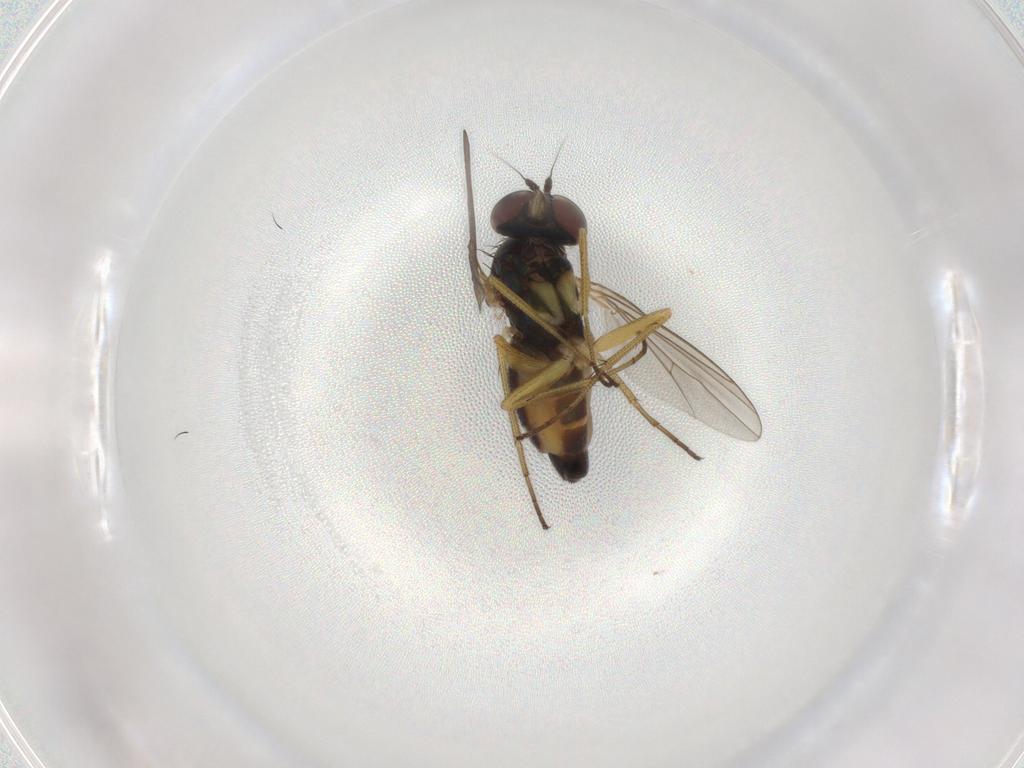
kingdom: Animalia
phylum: Arthropoda
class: Insecta
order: Diptera
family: Dolichopodidae
